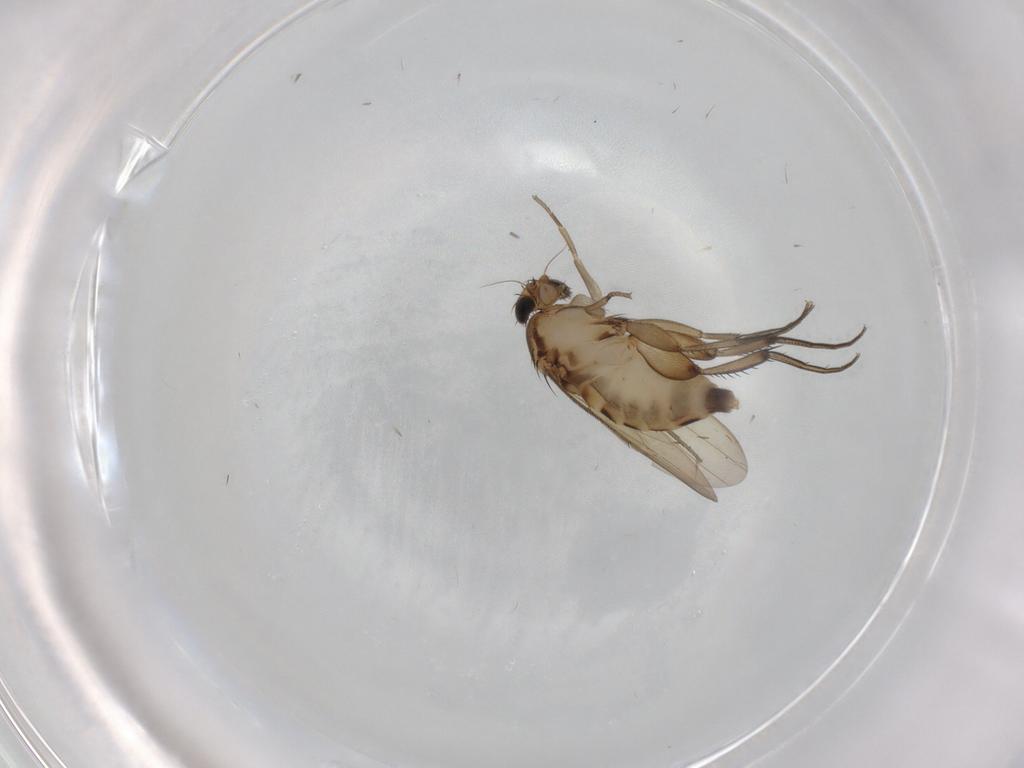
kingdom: Animalia
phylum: Arthropoda
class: Insecta
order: Diptera
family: Phoridae
